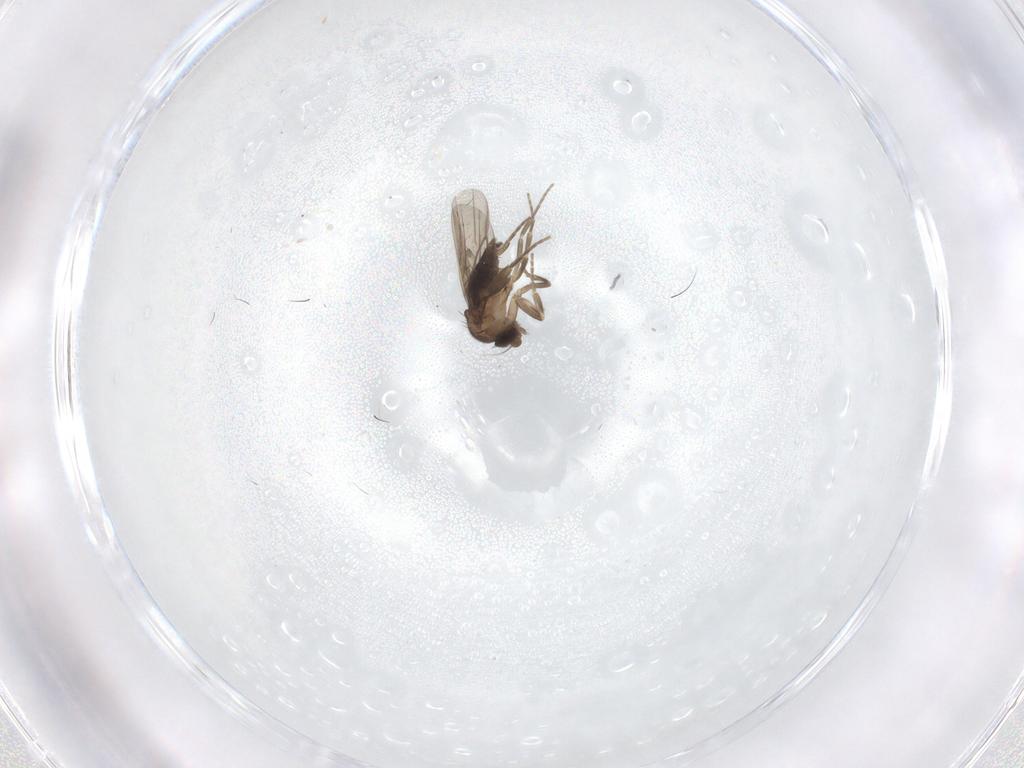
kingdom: Animalia
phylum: Arthropoda
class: Insecta
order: Diptera
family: Phoridae
